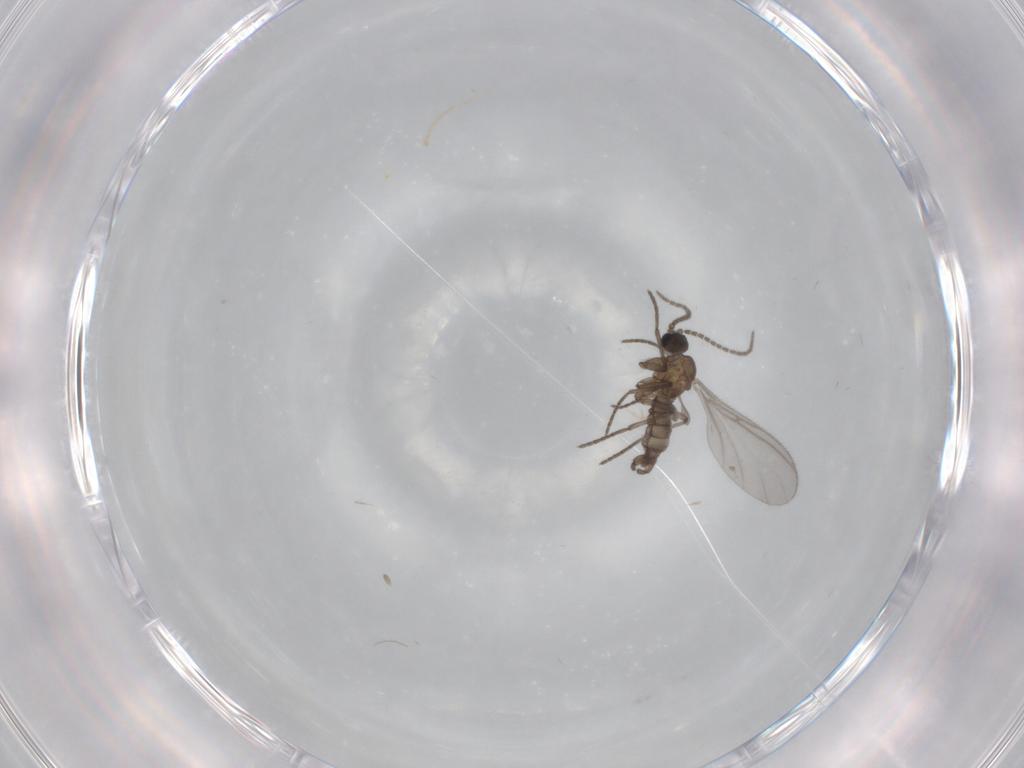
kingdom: Animalia
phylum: Arthropoda
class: Insecta
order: Diptera
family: Sciaridae
